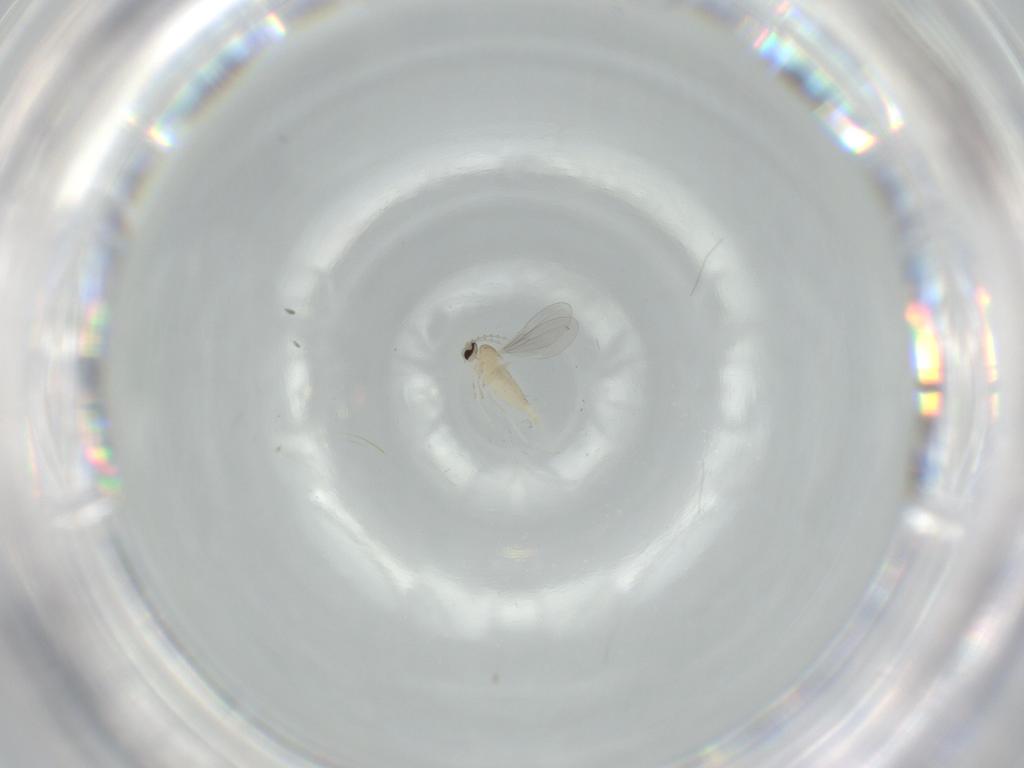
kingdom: Animalia
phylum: Arthropoda
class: Insecta
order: Diptera
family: Cecidomyiidae
